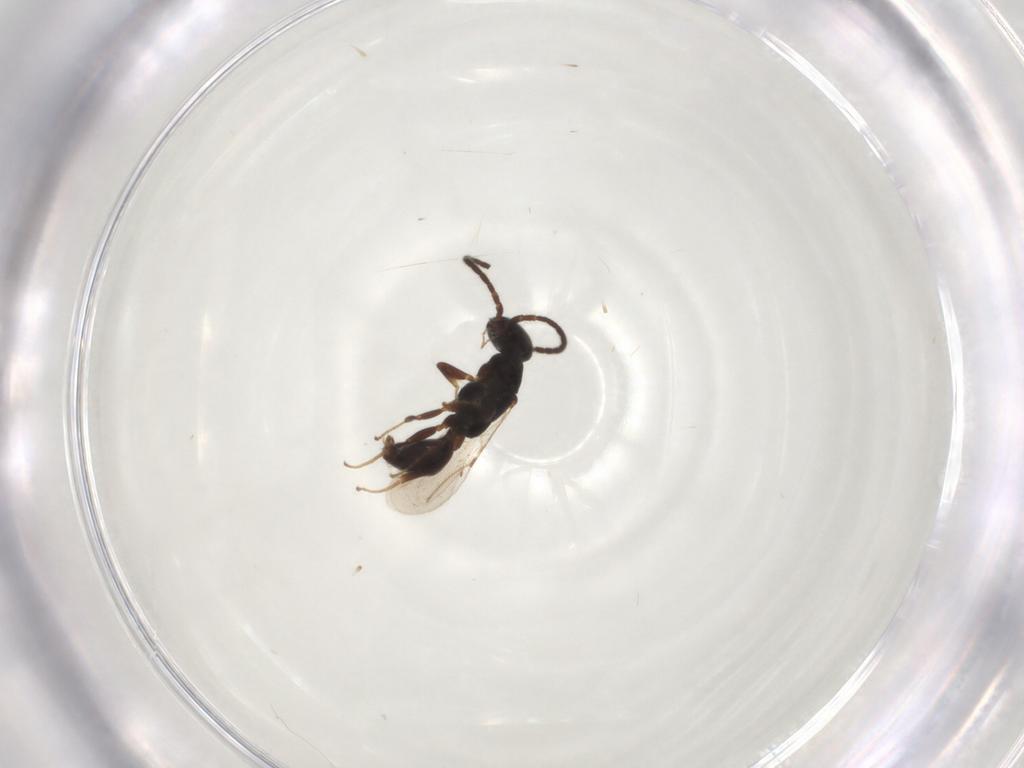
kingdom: Animalia
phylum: Arthropoda
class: Insecta
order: Hymenoptera
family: Bethylidae
